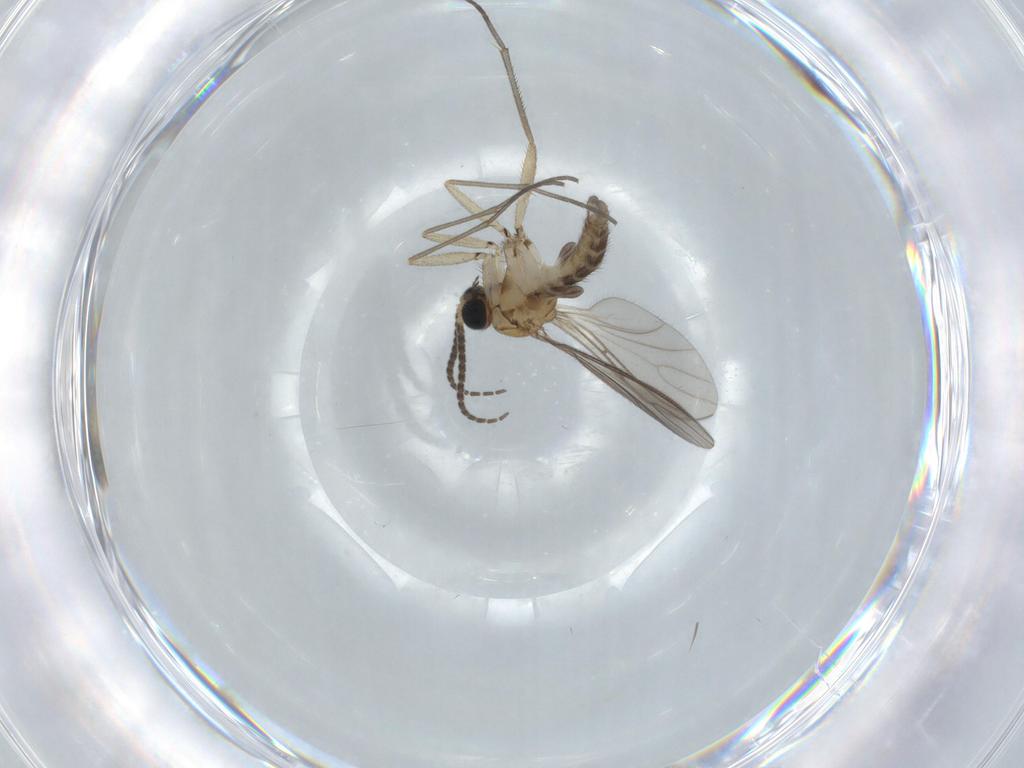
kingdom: Animalia
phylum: Arthropoda
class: Insecta
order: Diptera
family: Sciaridae
